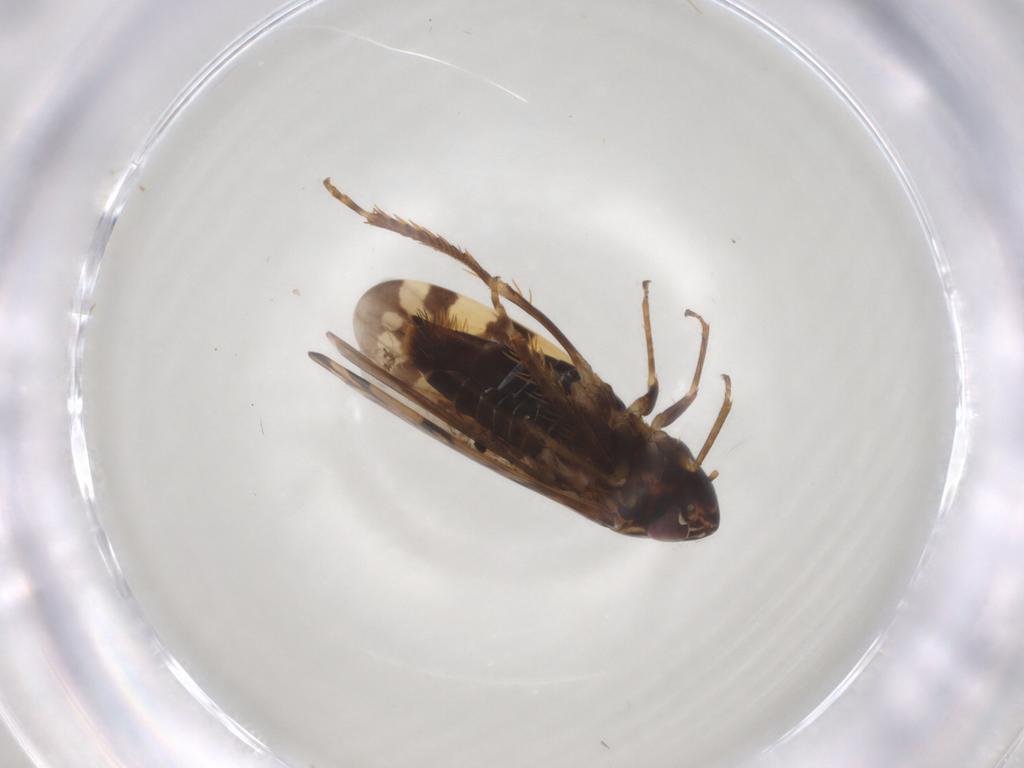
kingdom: Animalia
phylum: Arthropoda
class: Insecta
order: Hemiptera
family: Cicadellidae
